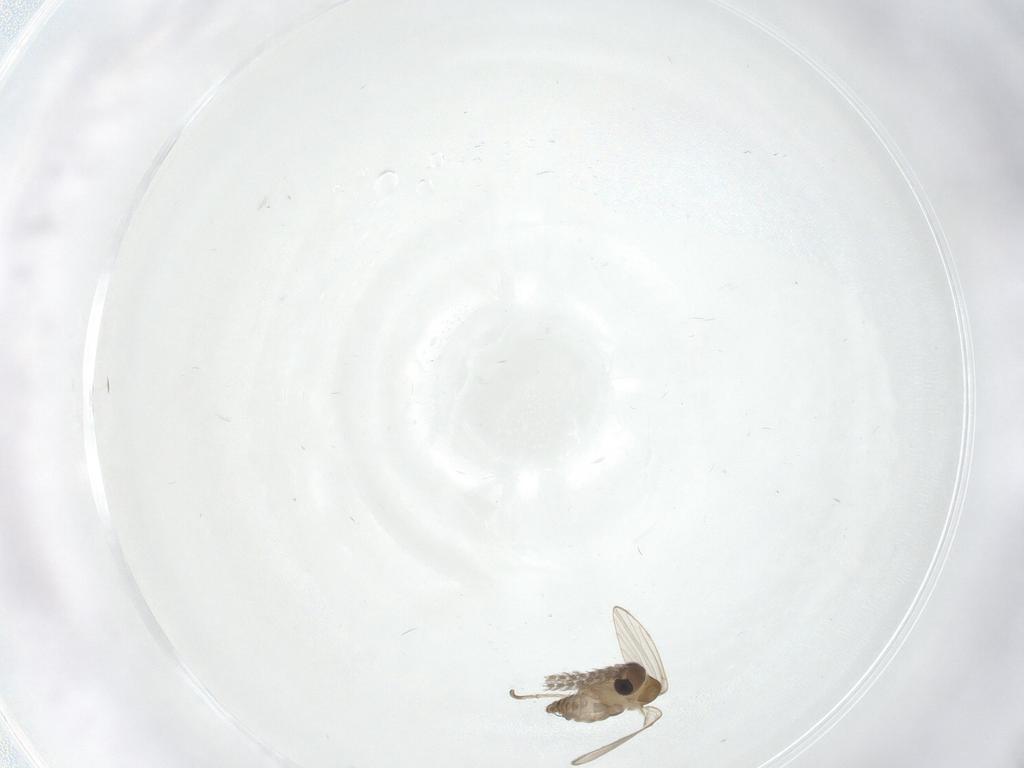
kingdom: Animalia
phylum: Arthropoda
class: Insecta
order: Diptera
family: Psychodidae
